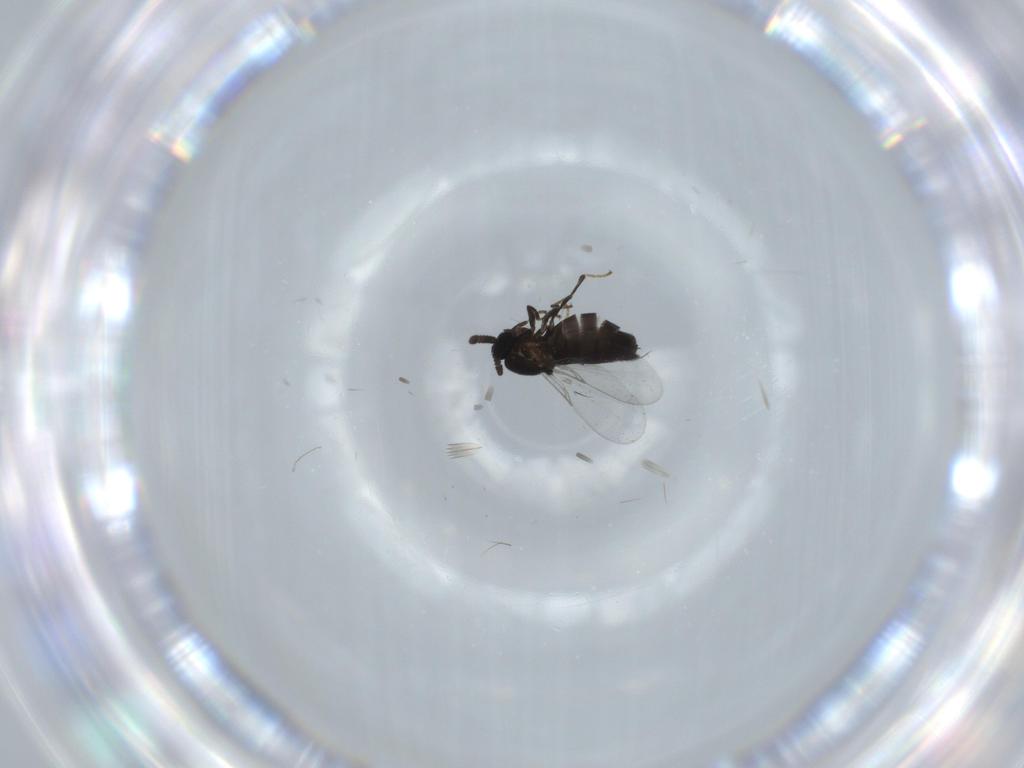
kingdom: Animalia
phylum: Arthropoda
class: Insecta
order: Diptera
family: Scatopsidae
